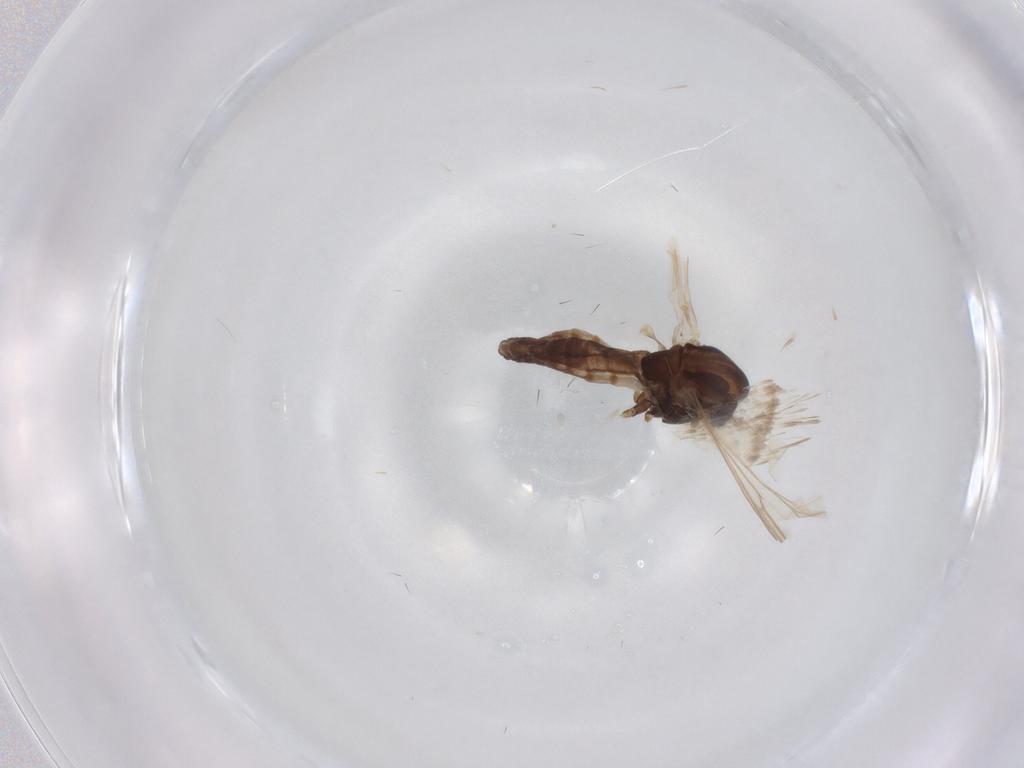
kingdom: Animalia
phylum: Arthropoda
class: Insecta
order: Diptera
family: Chironomidae
